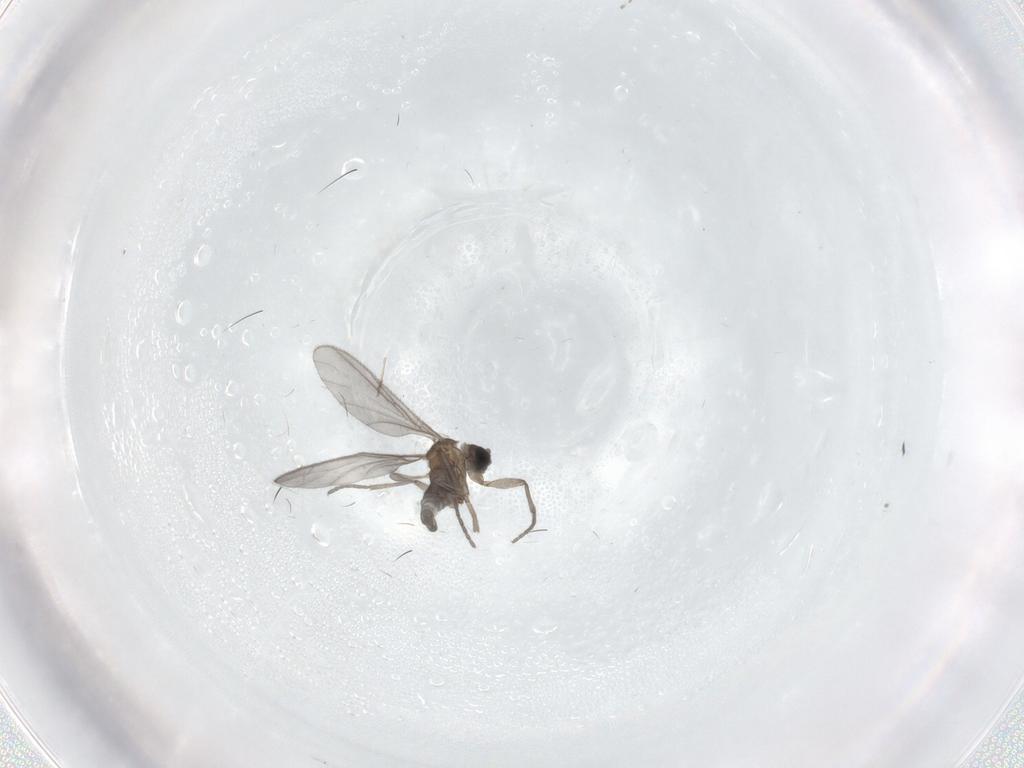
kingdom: Animalia
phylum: Arthropoda
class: Insecta
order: Diptera
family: Sciaridae
